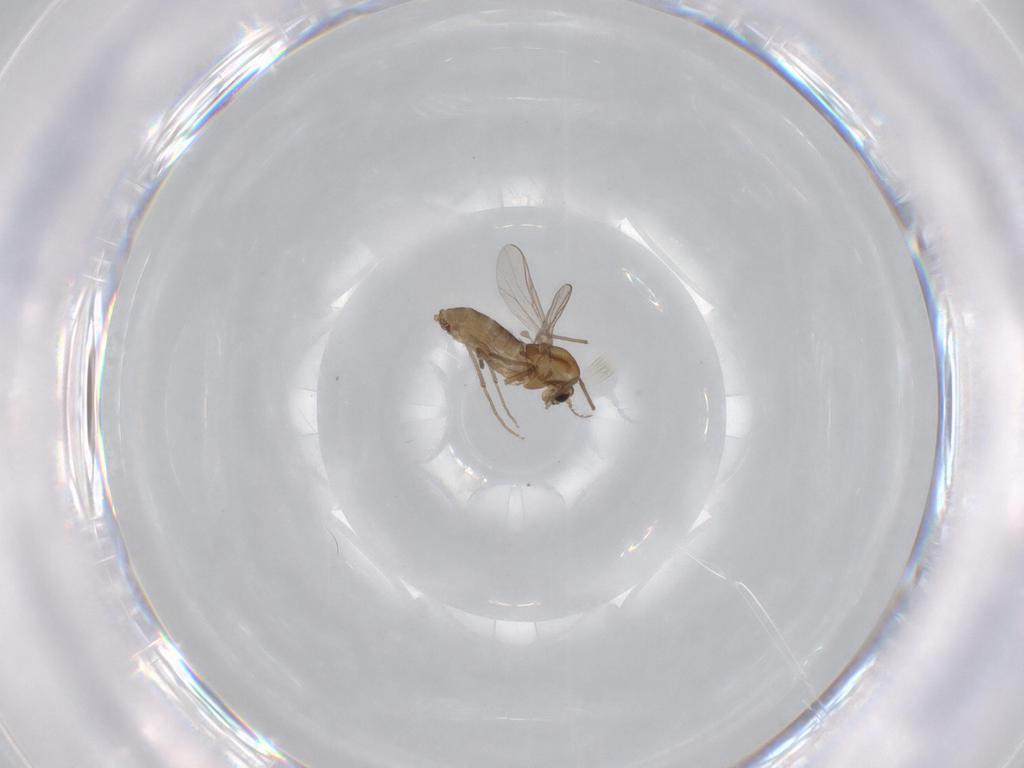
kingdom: Animalia
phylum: Arthropoda
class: Insecta
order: Diptera
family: Chironomidae
